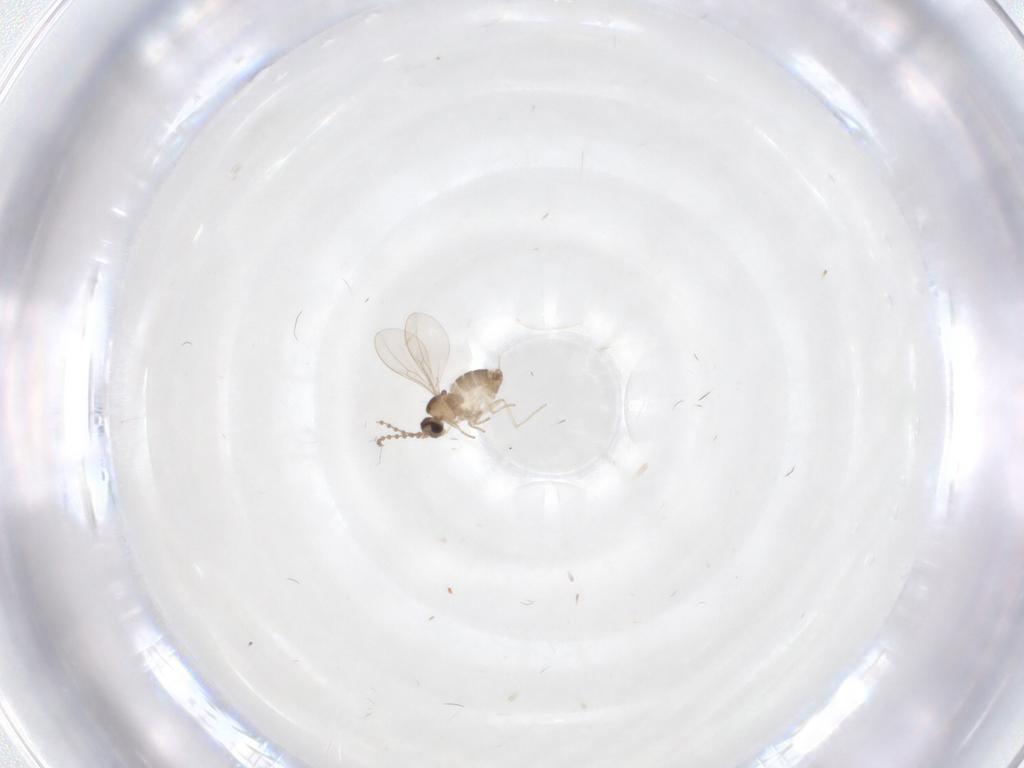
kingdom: Animalia
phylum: Arthropoda
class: Insecta
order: Diptera
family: Cecidomyiidae
